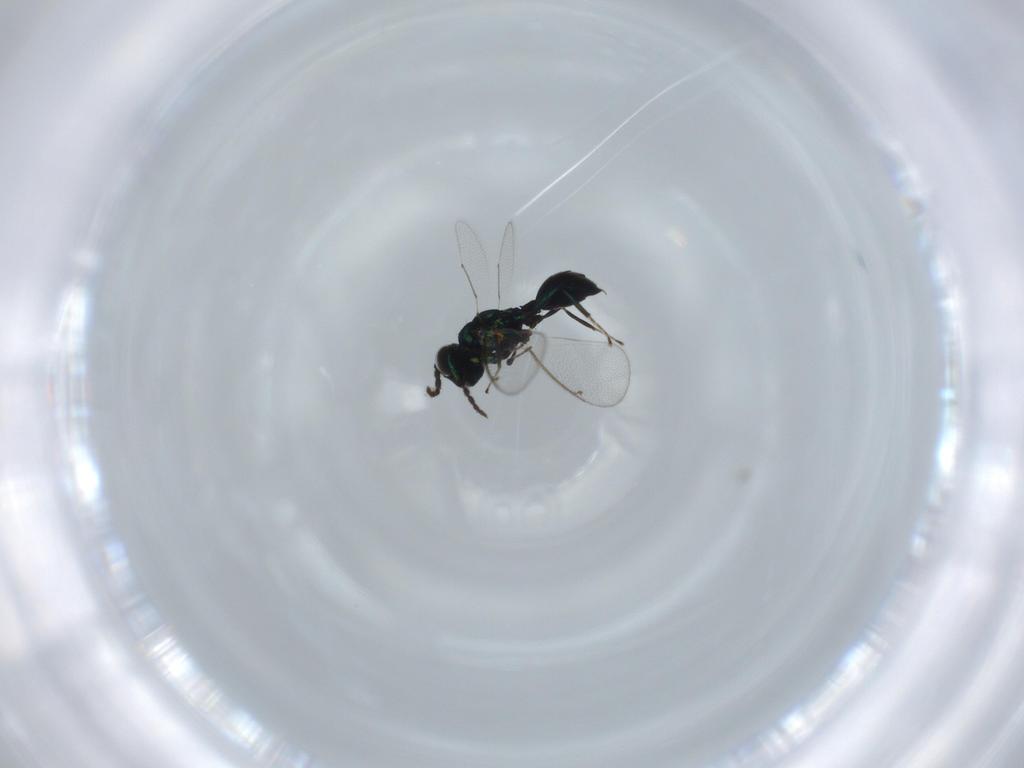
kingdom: Animalia
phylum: Arthropoda
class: Insecta
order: Hymenoptera
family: Eulophidae
